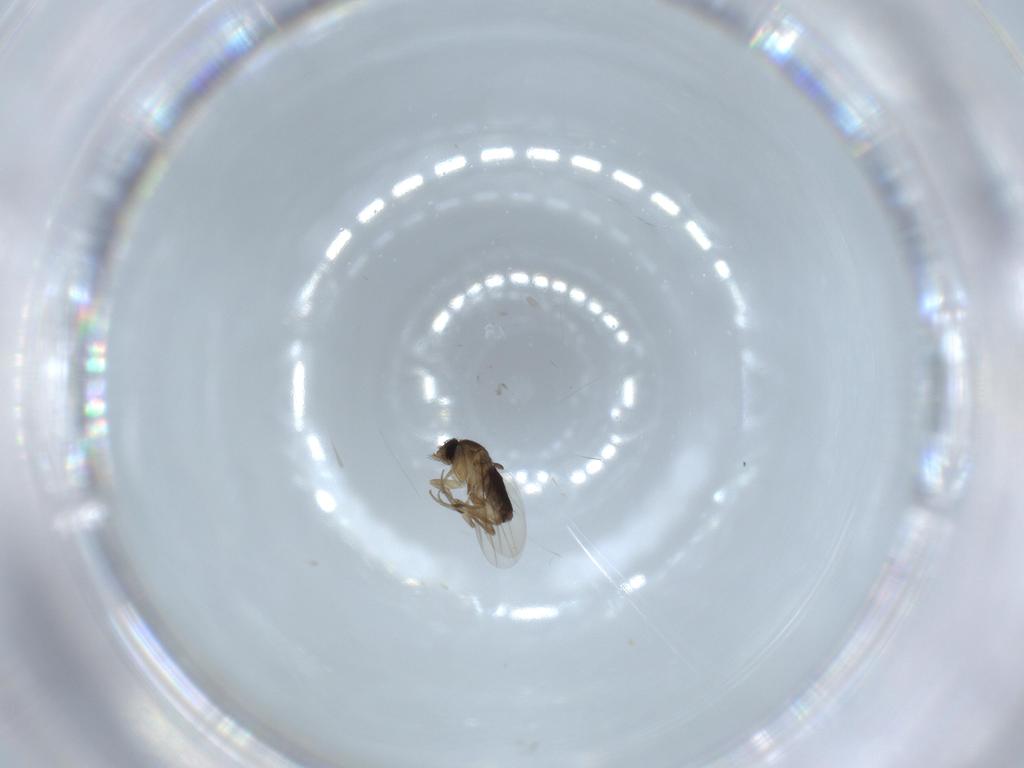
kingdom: Animalia
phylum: Arthropoda
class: Insecta
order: Diptera
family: Phoridae
